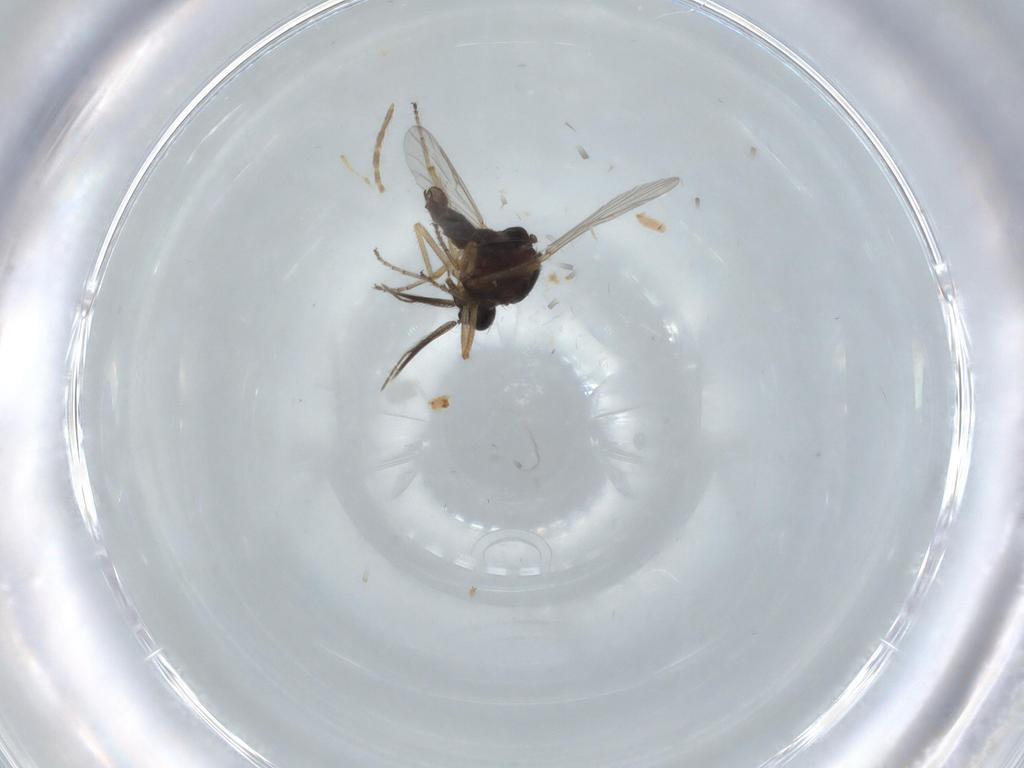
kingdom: Animalia
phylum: Arthropoda
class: Insecta
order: Diptera
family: Ceratopogonidae
